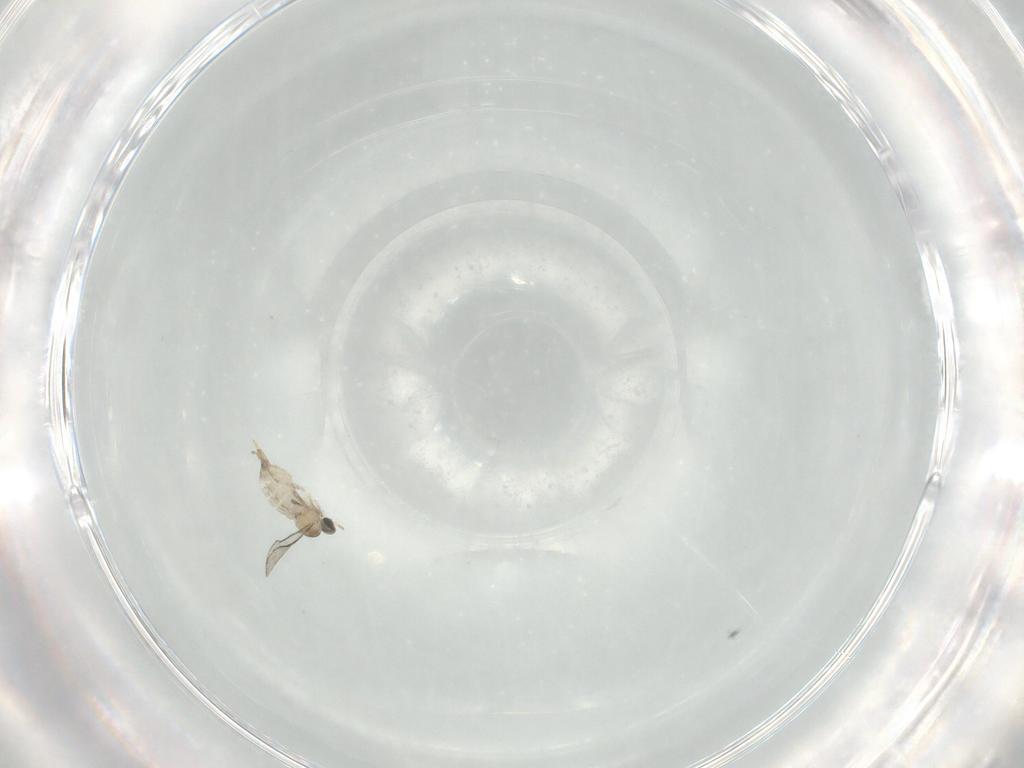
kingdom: Animalia
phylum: Arthropoda
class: Insecta
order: Diptera
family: Cecidomyiidae
